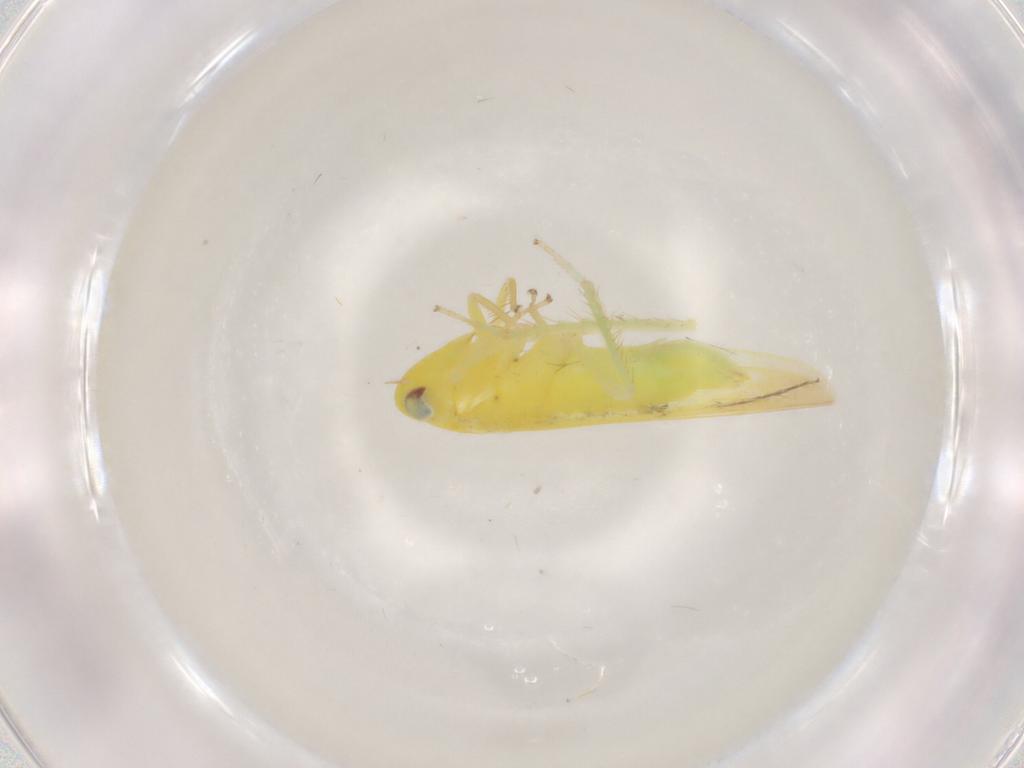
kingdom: Animalia
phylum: Arthropoda
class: Insecta
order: Hemiptera
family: Cicadellidae
